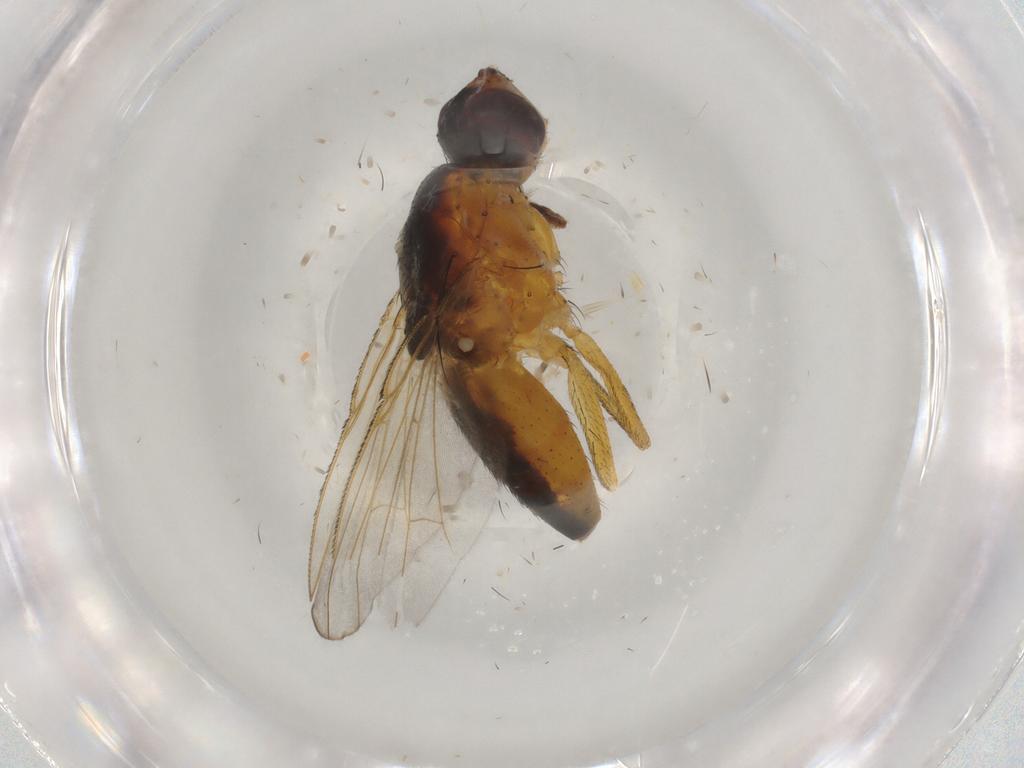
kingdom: Animalia
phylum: Arthropoda
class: Insecta
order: Diptera
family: Muscidae
